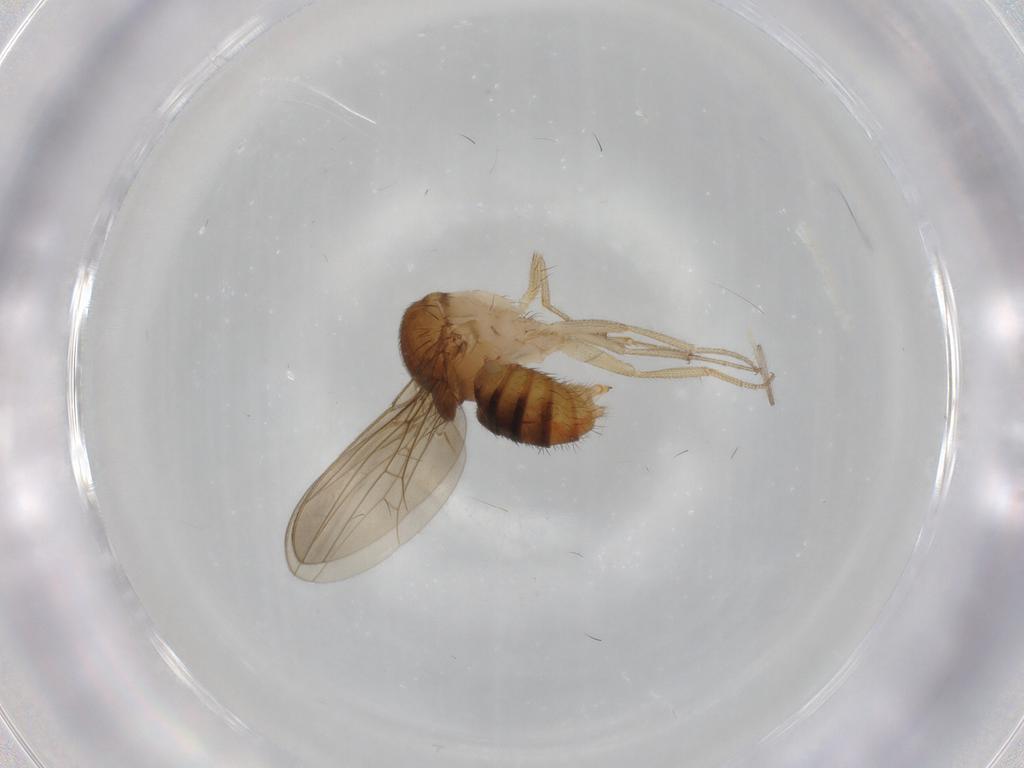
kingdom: Animalia
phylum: Arthropoda
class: Insecta
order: Diptera
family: Drosophilidae
